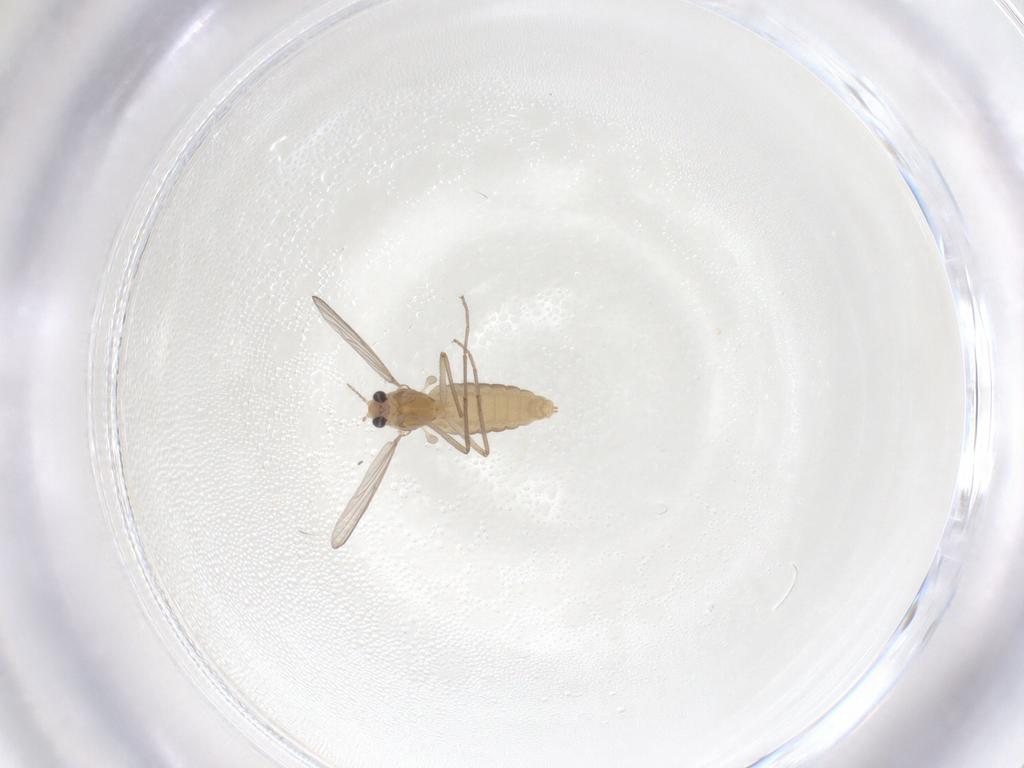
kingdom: Animalia
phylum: Arthropoda
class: Insecta
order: Diptera
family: Chironomidae
